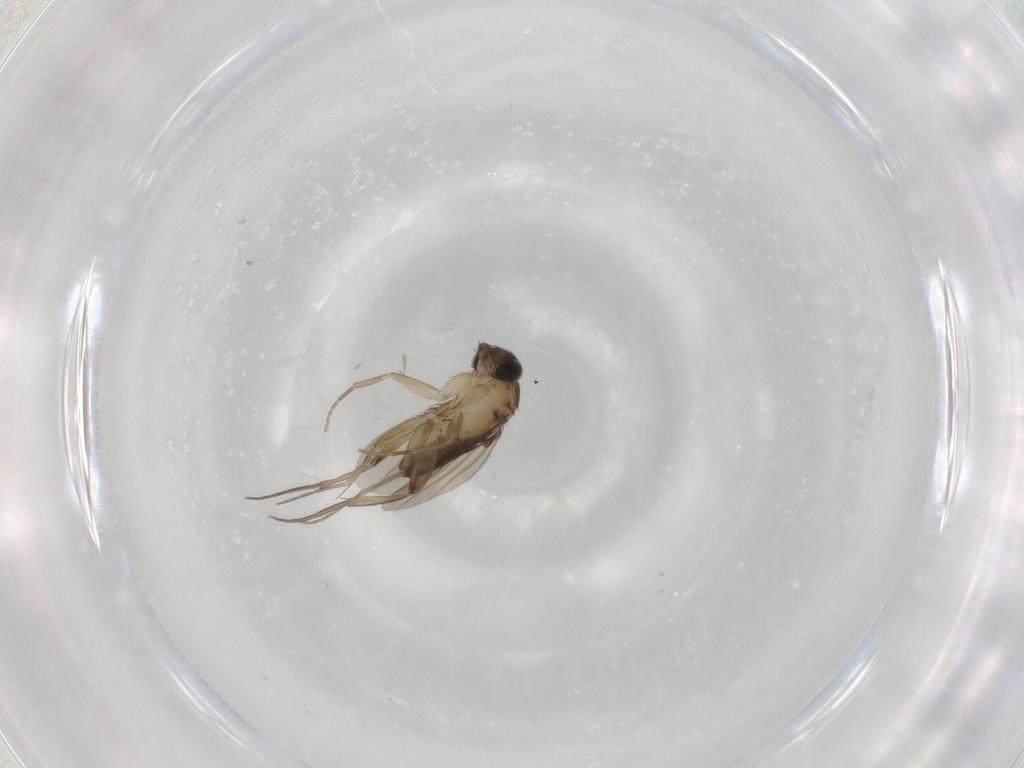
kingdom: Animalia
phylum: Arthropoda
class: Insecta
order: Diptera
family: Phoridae
